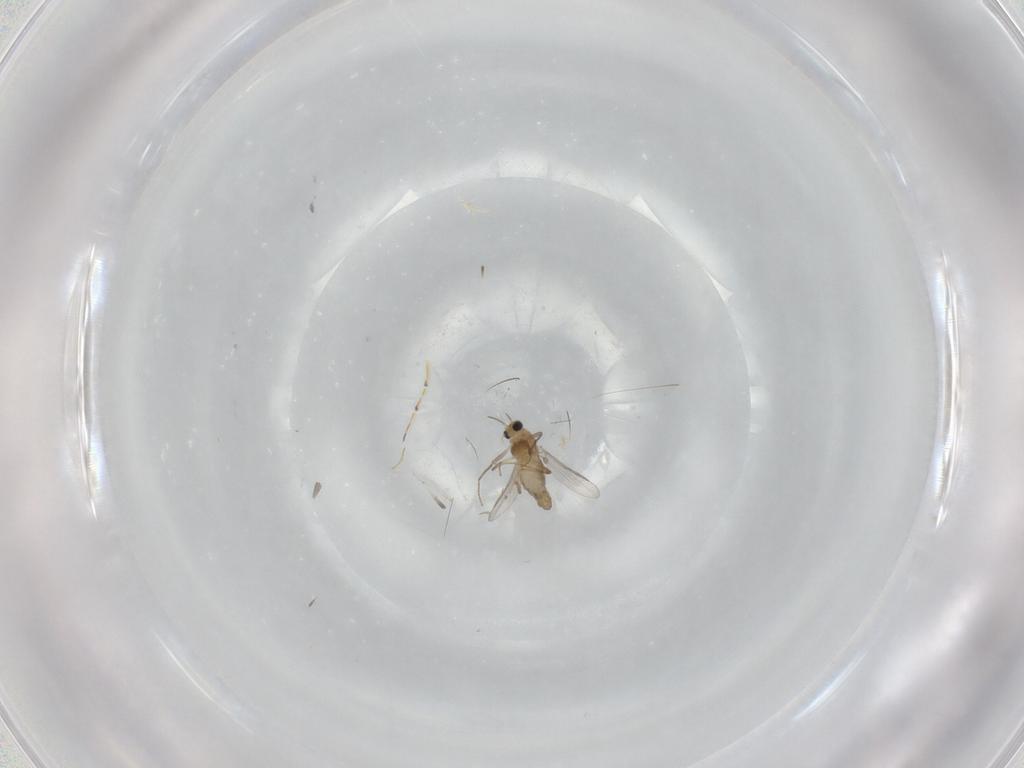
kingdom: Animalia
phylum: Arthropoda
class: Insecta
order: Diptera
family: Chironomidae
